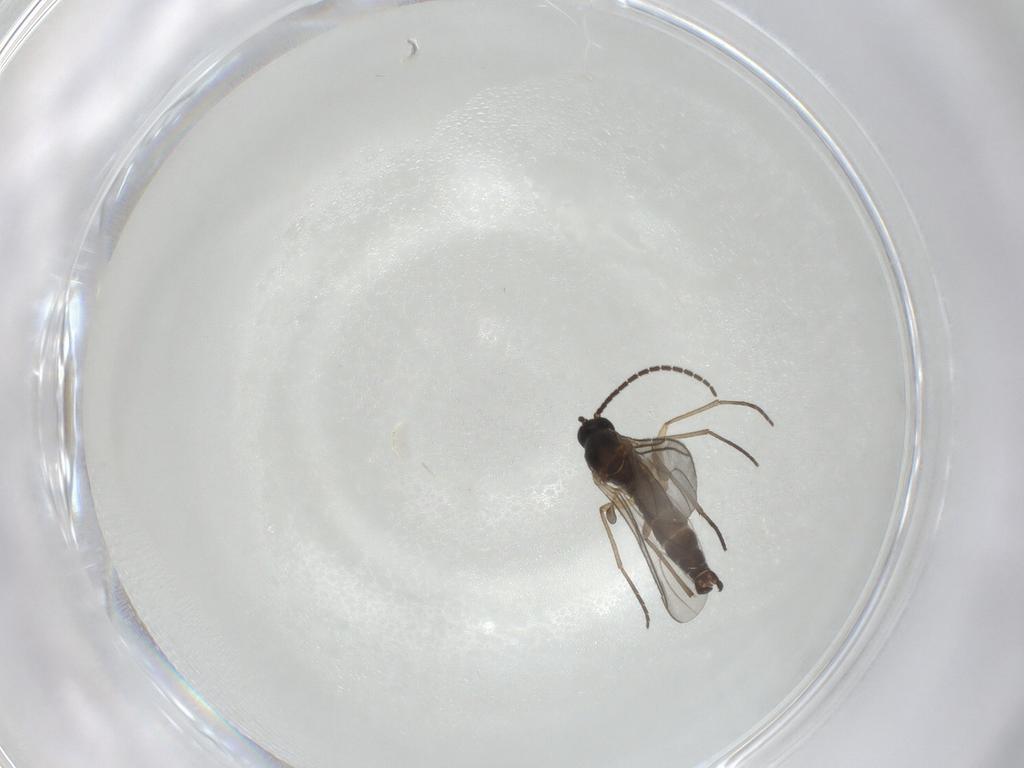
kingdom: Animalia
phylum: Arthropoda
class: Insecta
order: Diptera
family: Sciaridae
